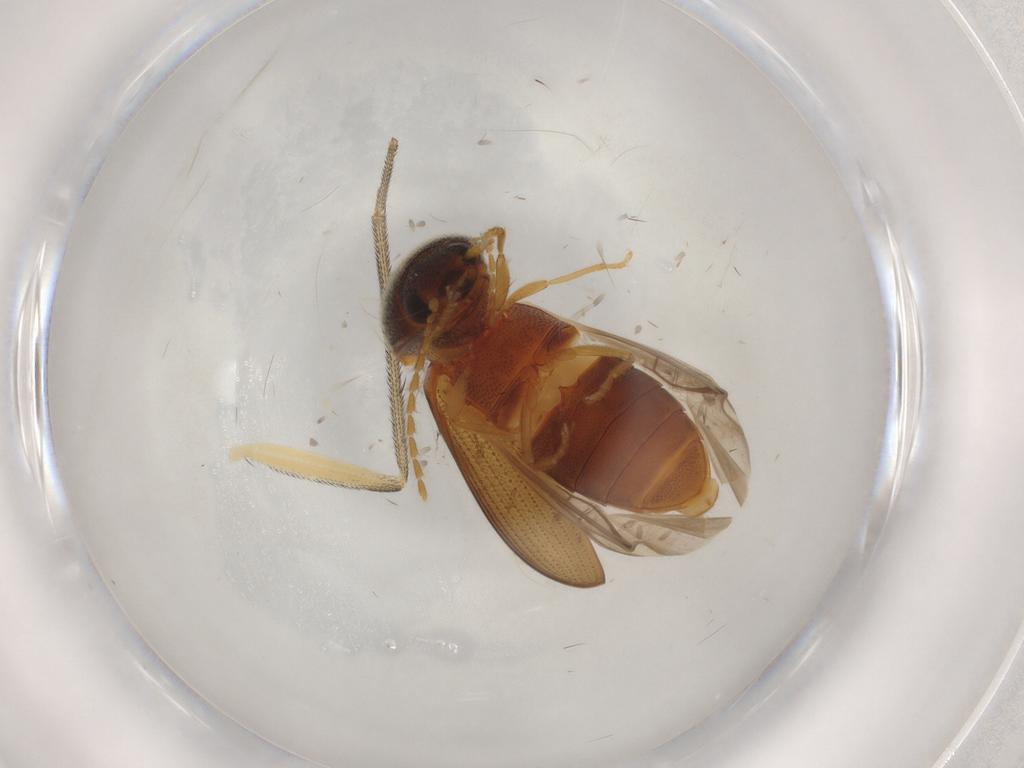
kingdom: Animalia
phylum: Arthropoda
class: Insecta
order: Coleoptera
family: Elateridae
